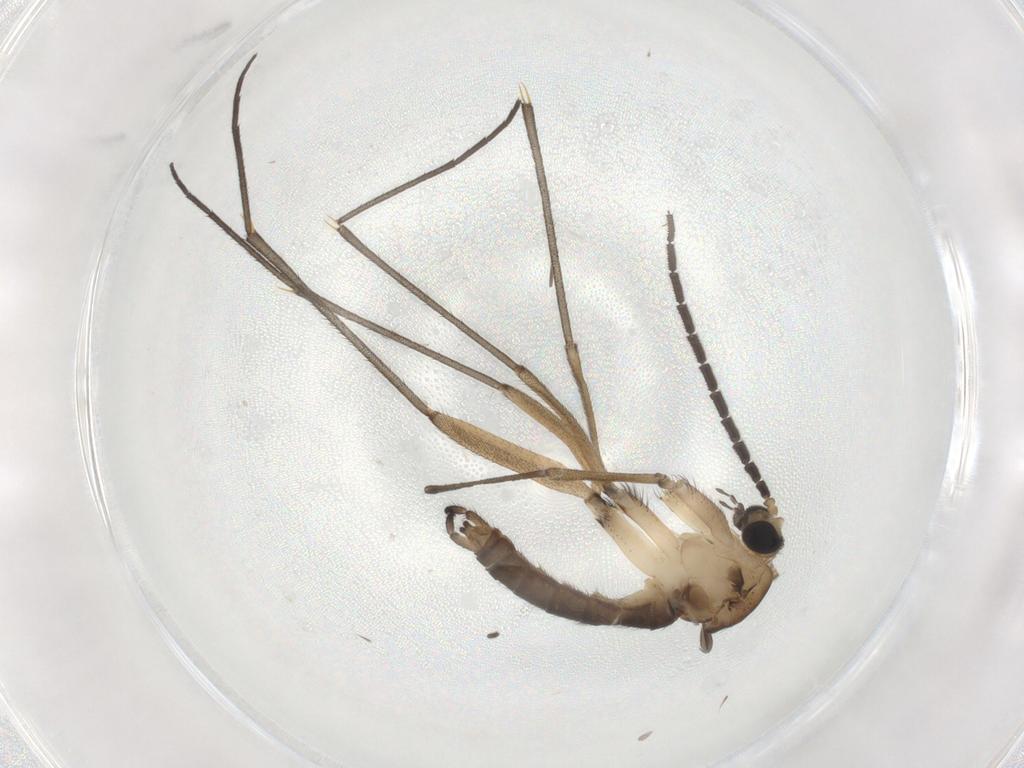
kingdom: Animalia
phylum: Arthropoda
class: Insecta
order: Diptera
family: Sciaridae
